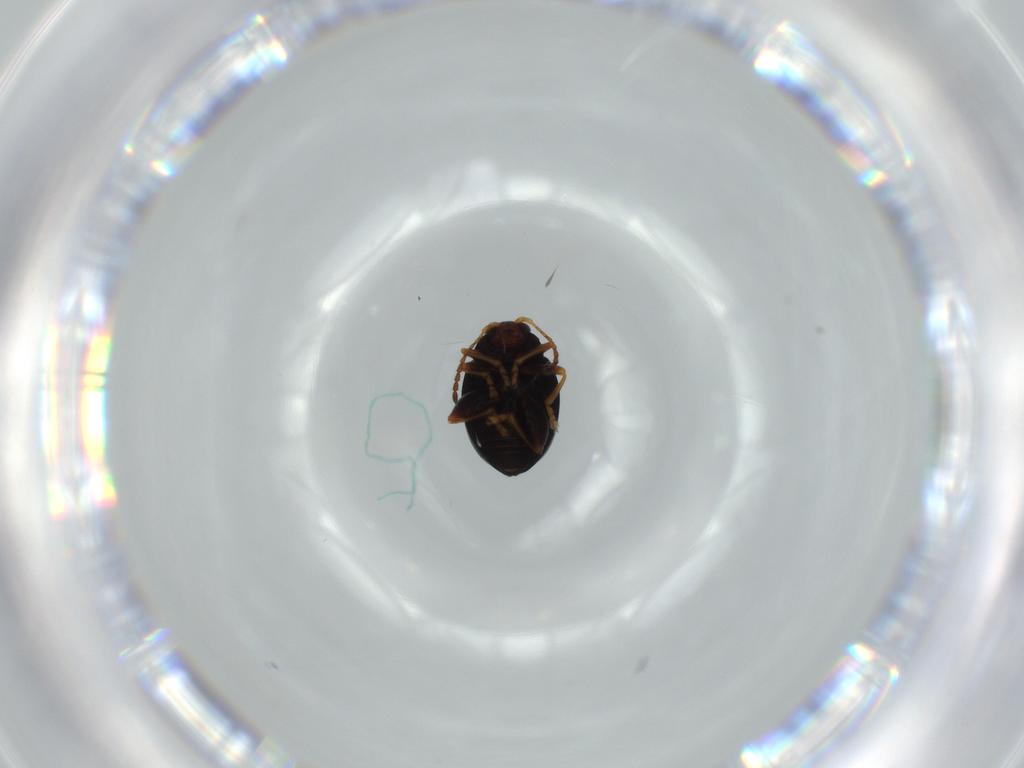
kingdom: Animalia
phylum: Arthropoda
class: Insecta
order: Coleoptera
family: Chrysomelidae
